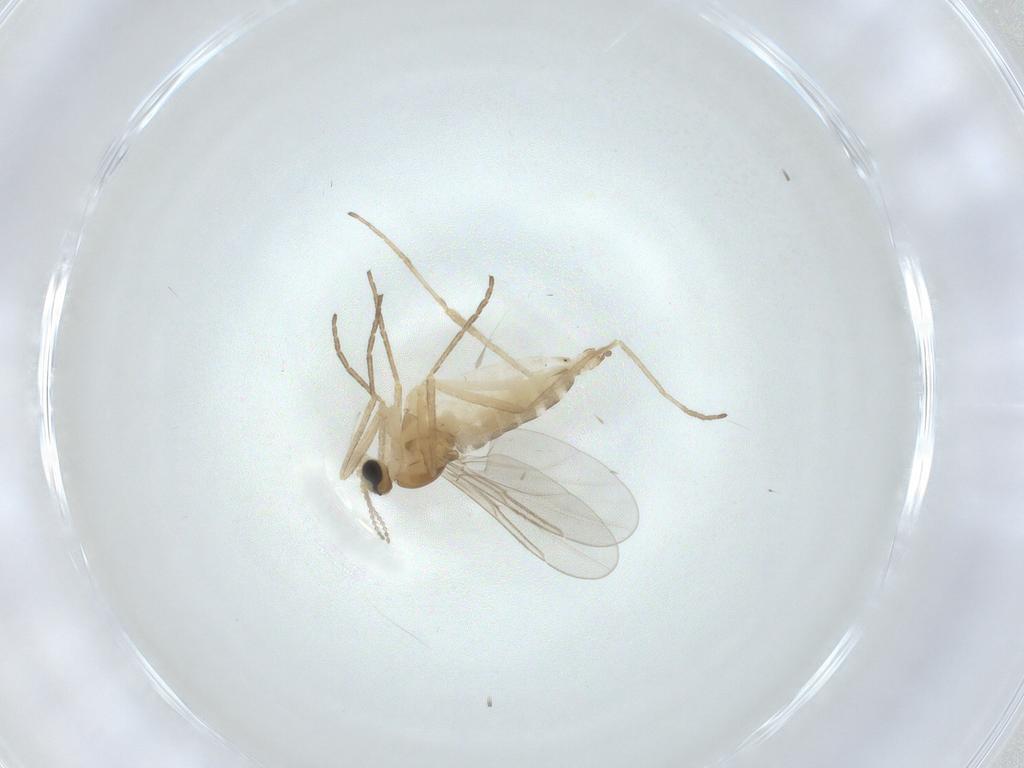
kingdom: Animalia
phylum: Arthropoda
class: Insecta
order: Diptera
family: Cecidomyiidae
